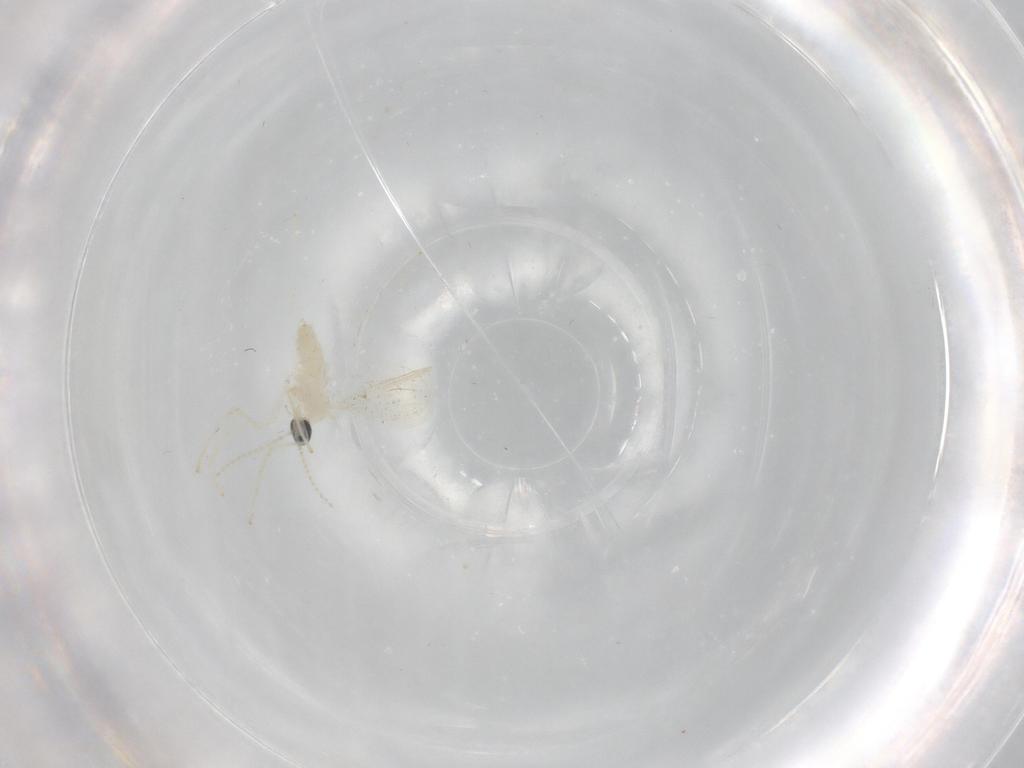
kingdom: Animalia
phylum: Arthropoda
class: Insecta
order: Diptera
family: Cecidomyiidae
